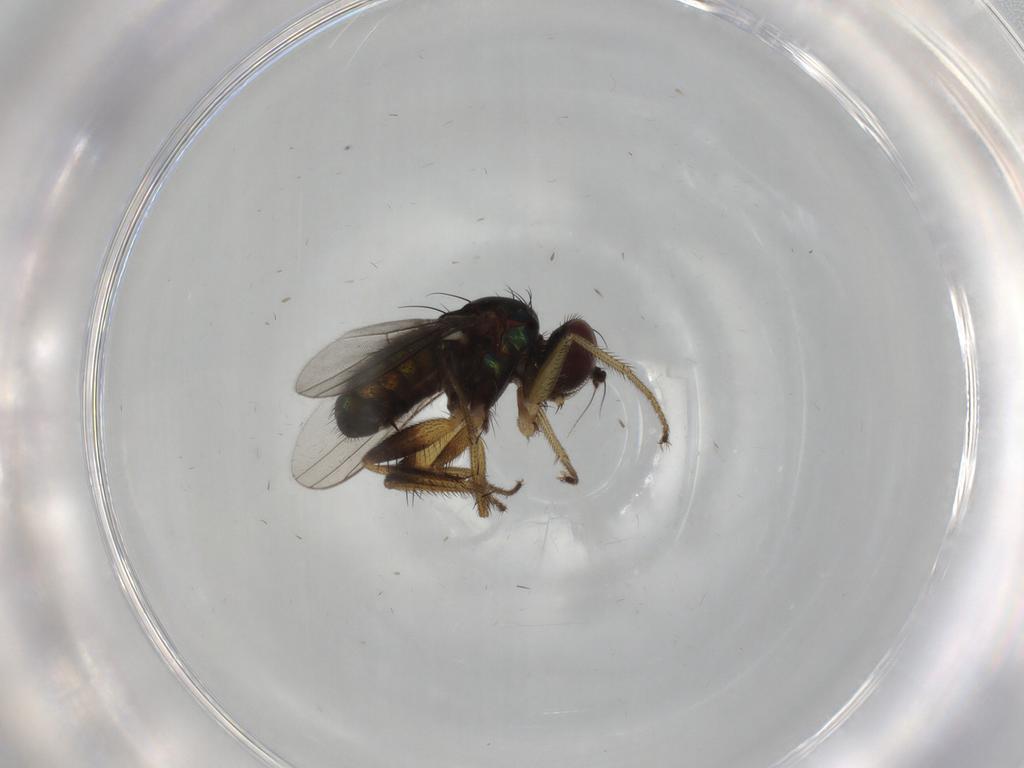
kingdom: Animalia
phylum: Arthropoda
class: Insecta
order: Diptera
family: Dolichopodidae
